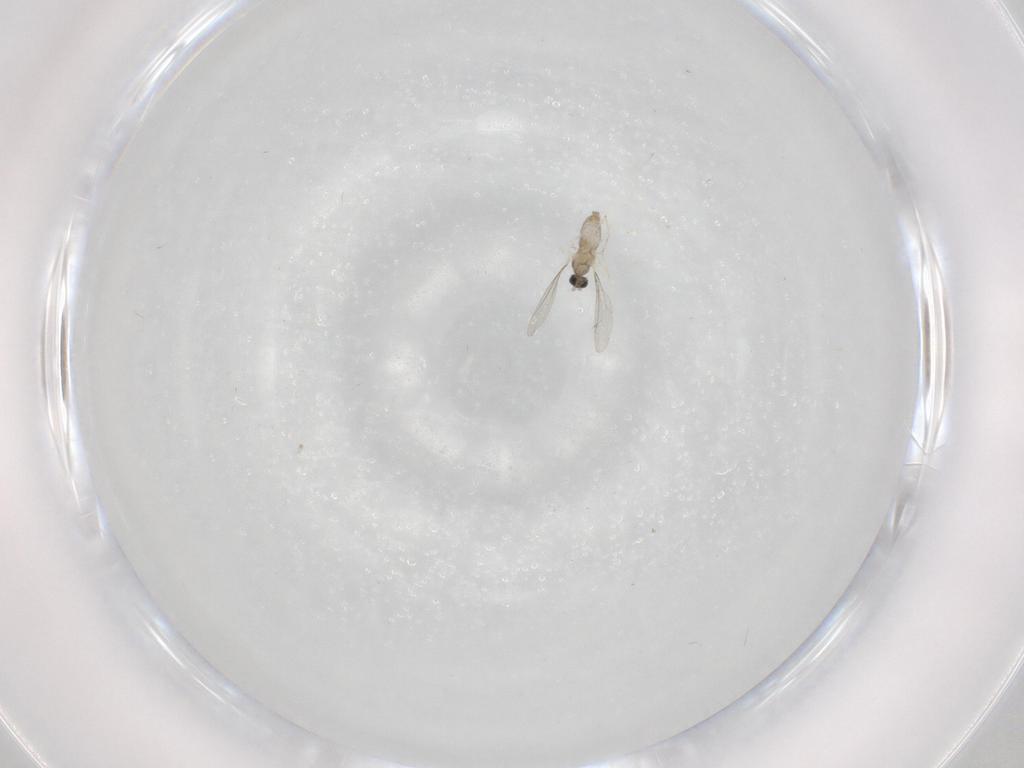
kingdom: Animalia
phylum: Arthropoda
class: Insecta
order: Diptera
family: Cecidomyiidae
